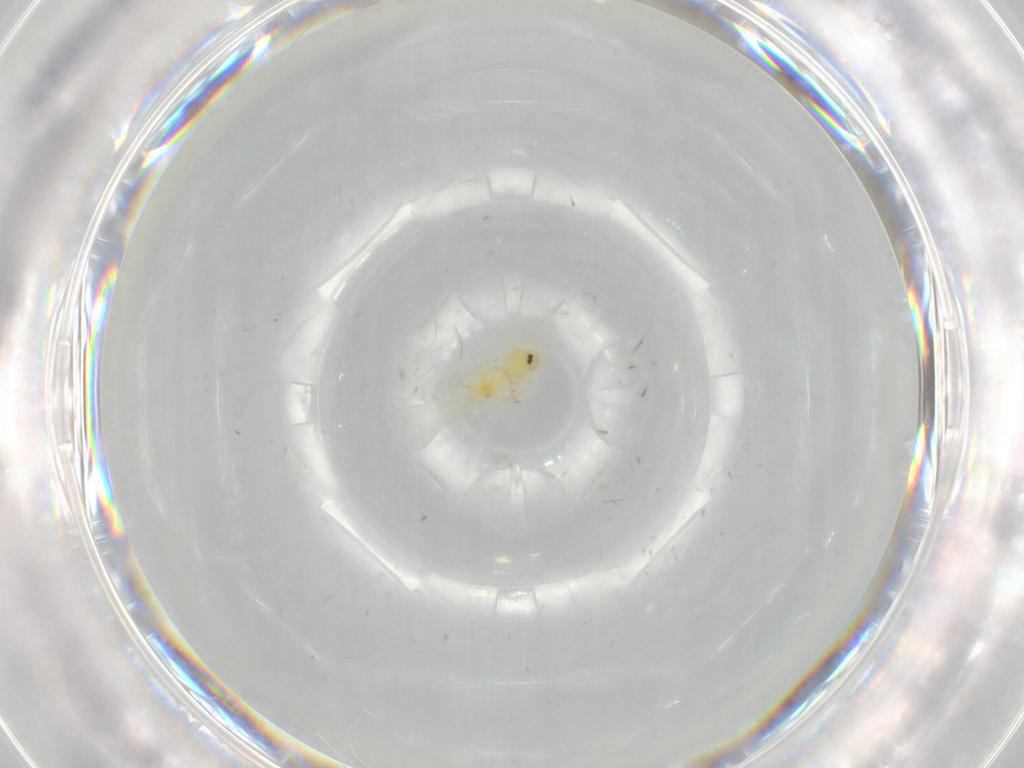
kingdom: Animalia
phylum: Arthropoda
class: Insecta
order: Hemiptera
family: Aleyrodidae
